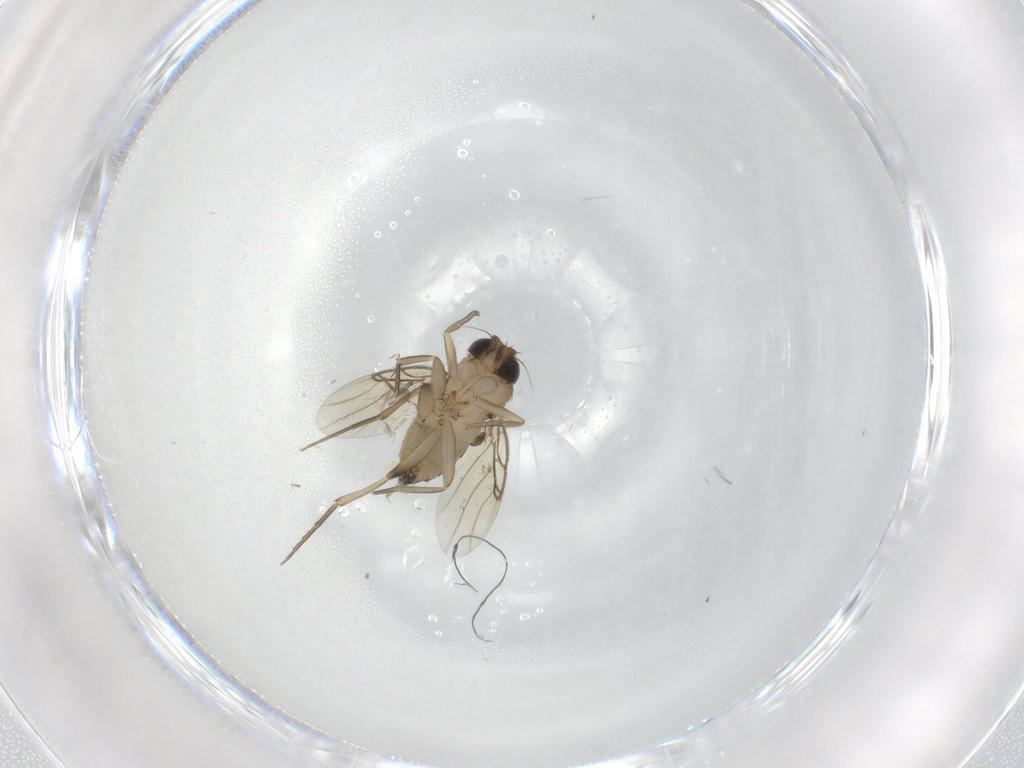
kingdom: Animalia
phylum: Arthropoda
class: Insecta
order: Diptera
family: Phoridae
